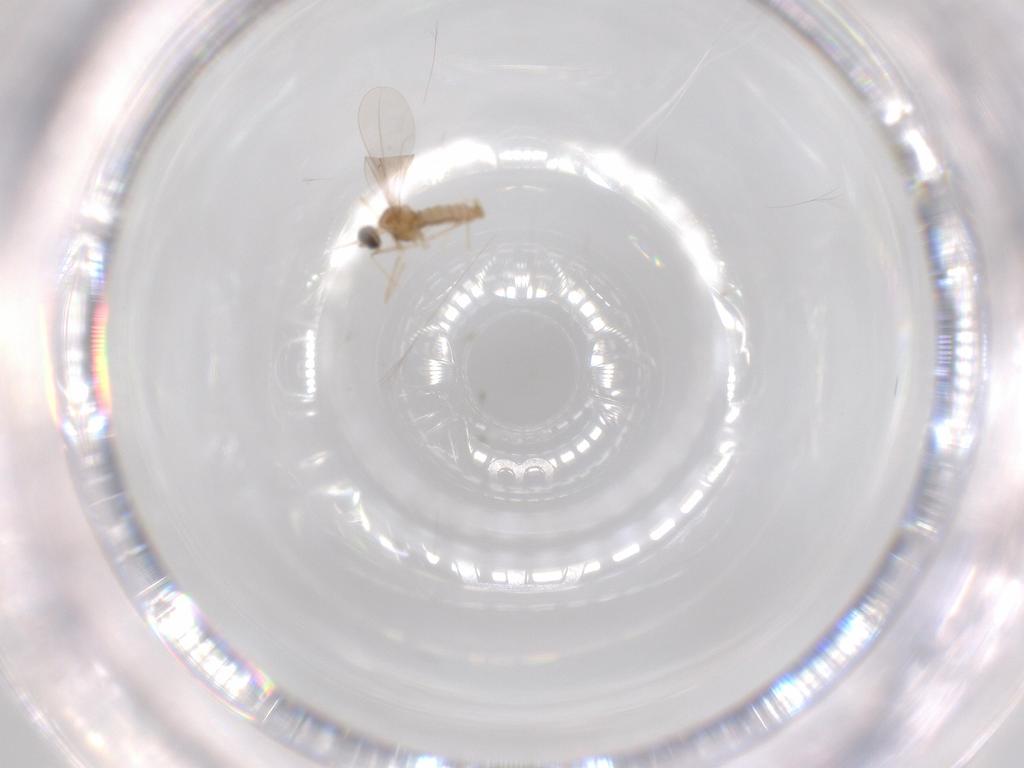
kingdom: Animalia
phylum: Arthropoda
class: Insecta
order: Diptera
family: Cecidomyiidae
